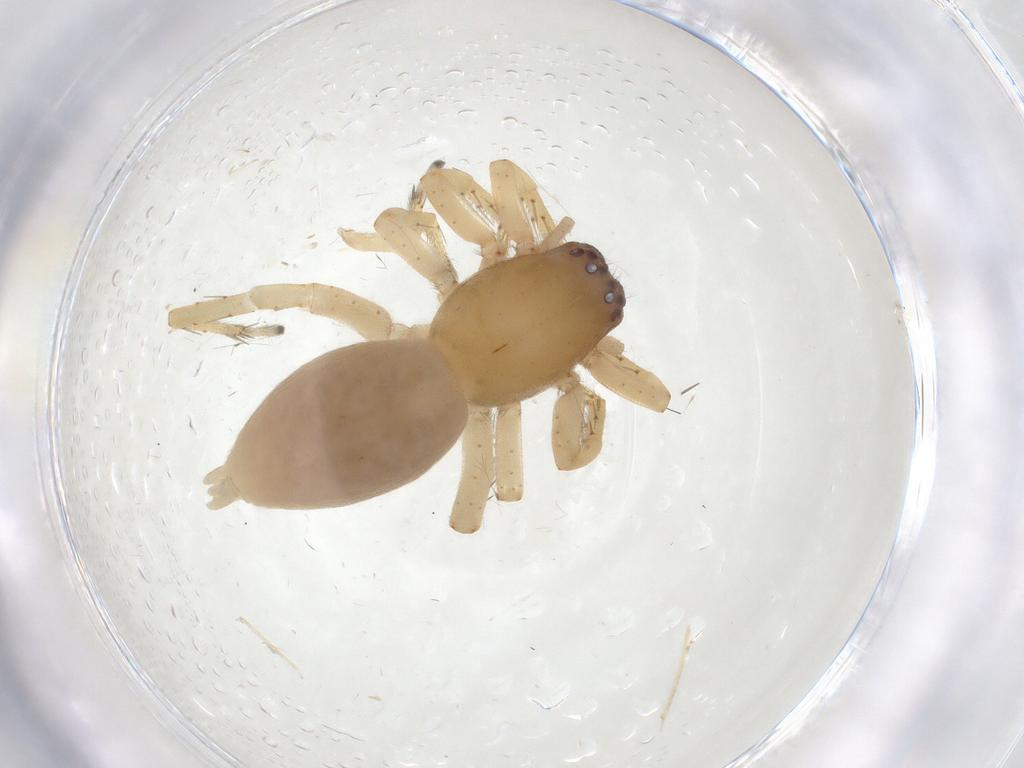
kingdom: Animalia
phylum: Arthropoda
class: Arachnida
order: Araneae
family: Clubionidae
